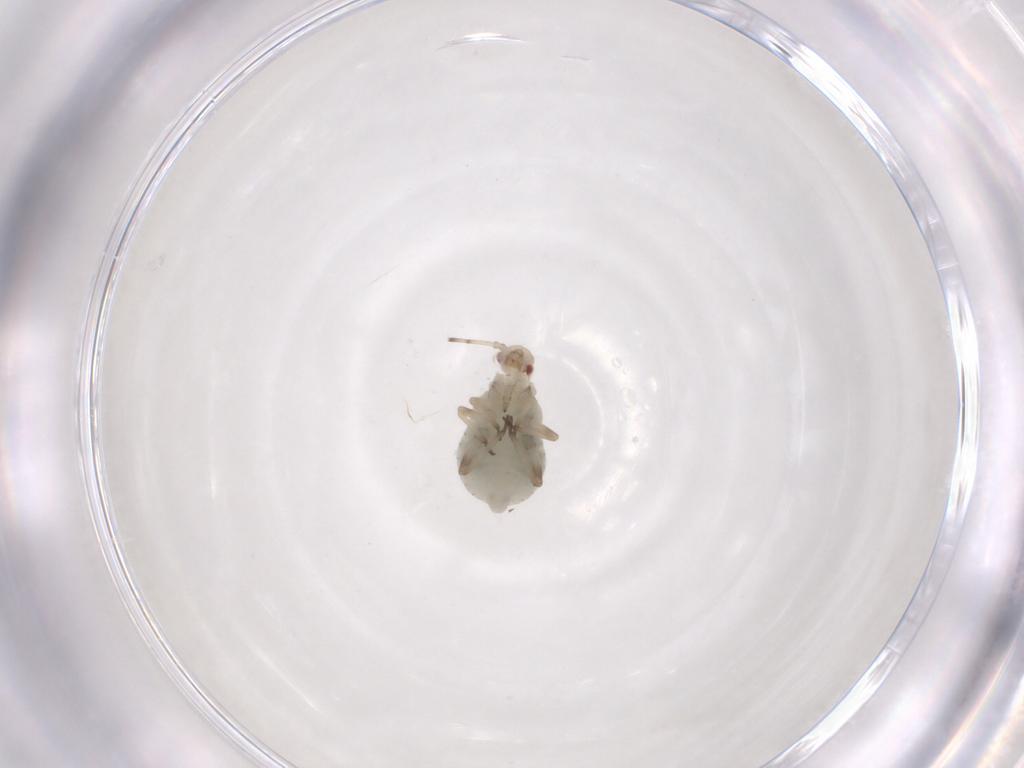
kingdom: Animalia
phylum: Arthropoda
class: Insecta
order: Hemiptera
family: Aphididae
